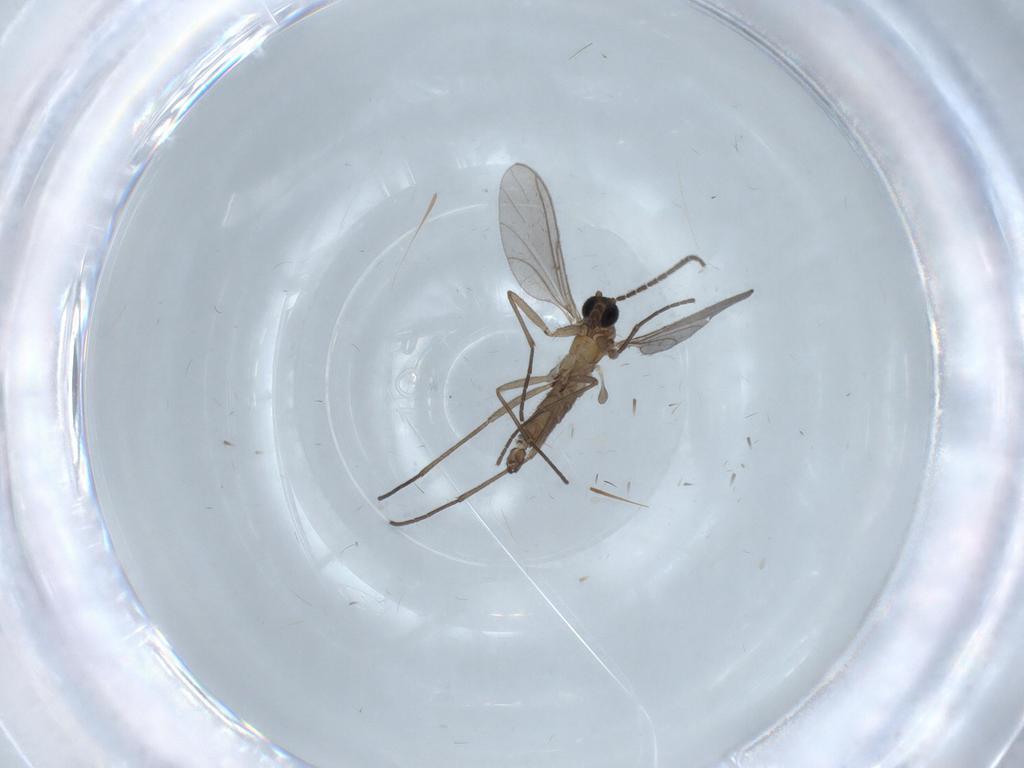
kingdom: Animalia
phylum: Arthropoda
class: Insecta
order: Diptera
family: Cecidomyiidae
